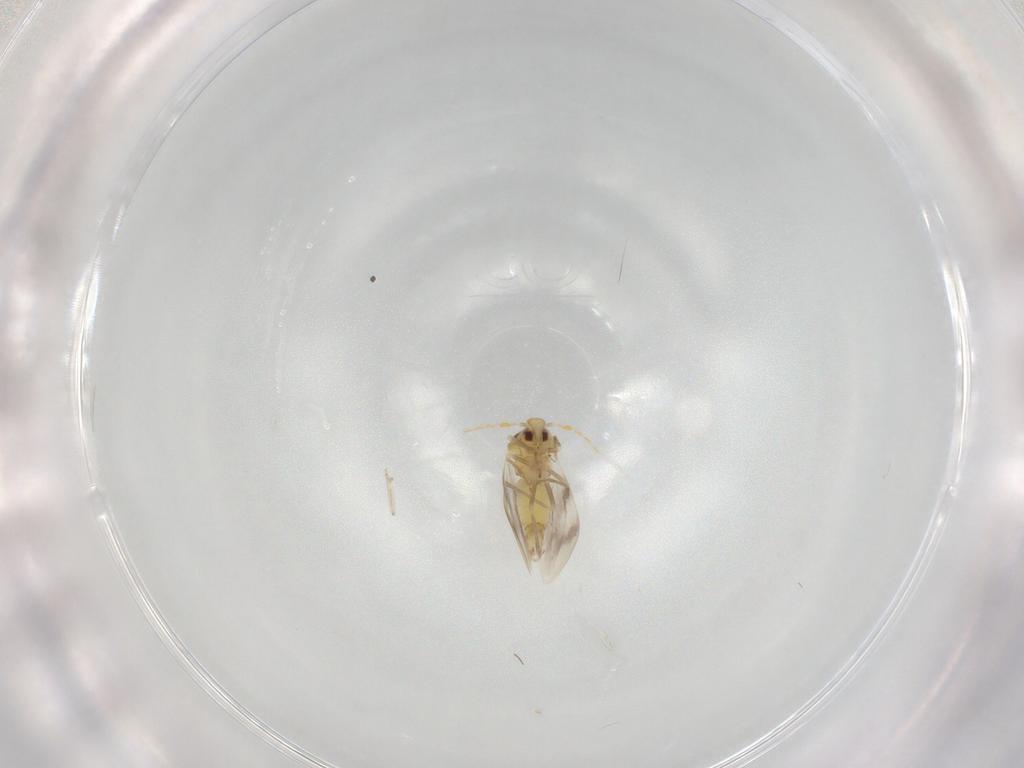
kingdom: Animalia
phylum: Arthropoda
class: Insecta
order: Hemiptera
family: Aleyrodidae
